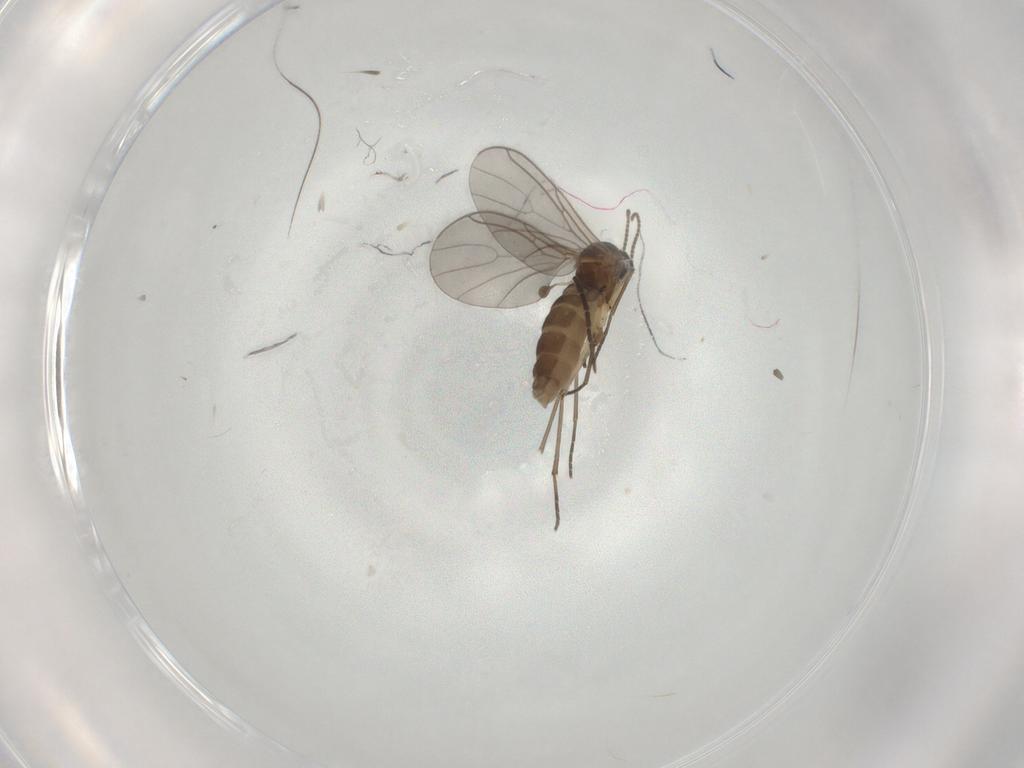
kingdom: Animalia
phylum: Arthropoda
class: Insecta
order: Diptera
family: Sciaridae
